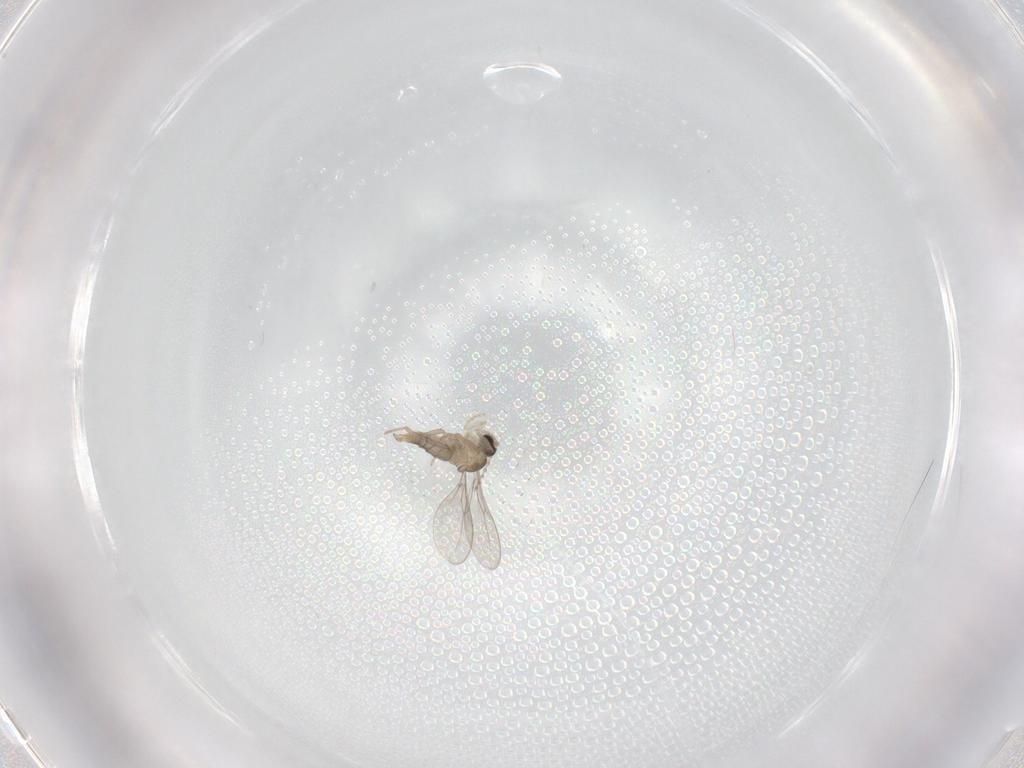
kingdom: Animalia
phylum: Arthropoda
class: Insecta
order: Diptera
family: Cecidomyiidae
